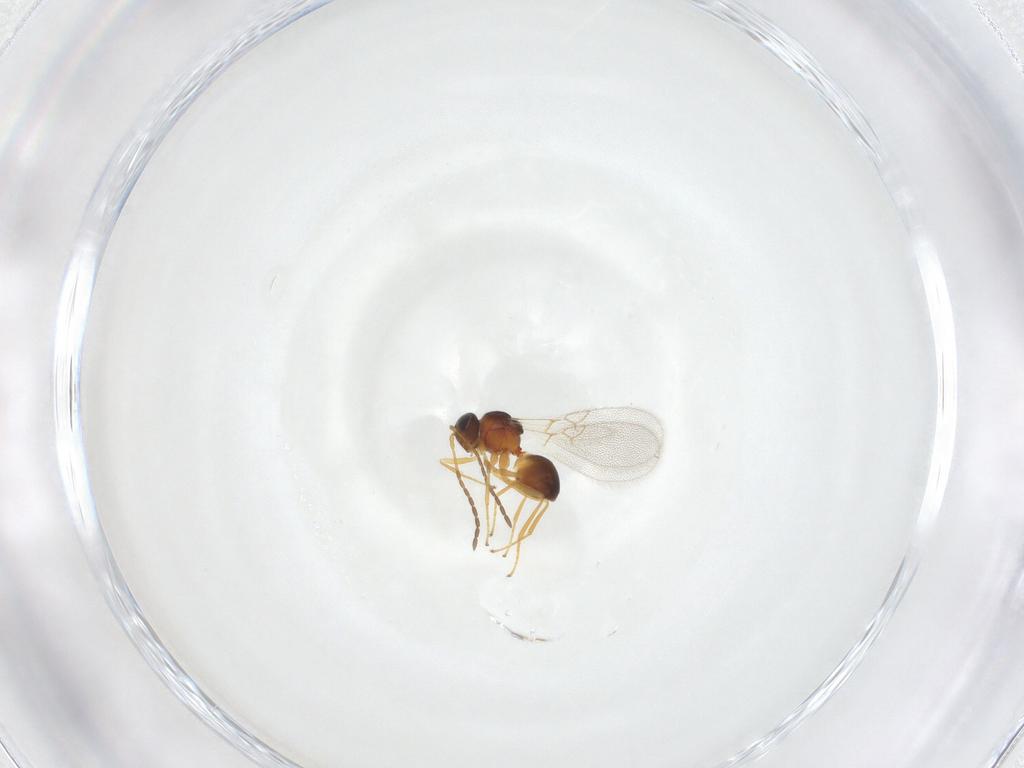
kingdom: Animalia
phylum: Arthropoda
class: Insecta
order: Hymenoptera
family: Figitidae
